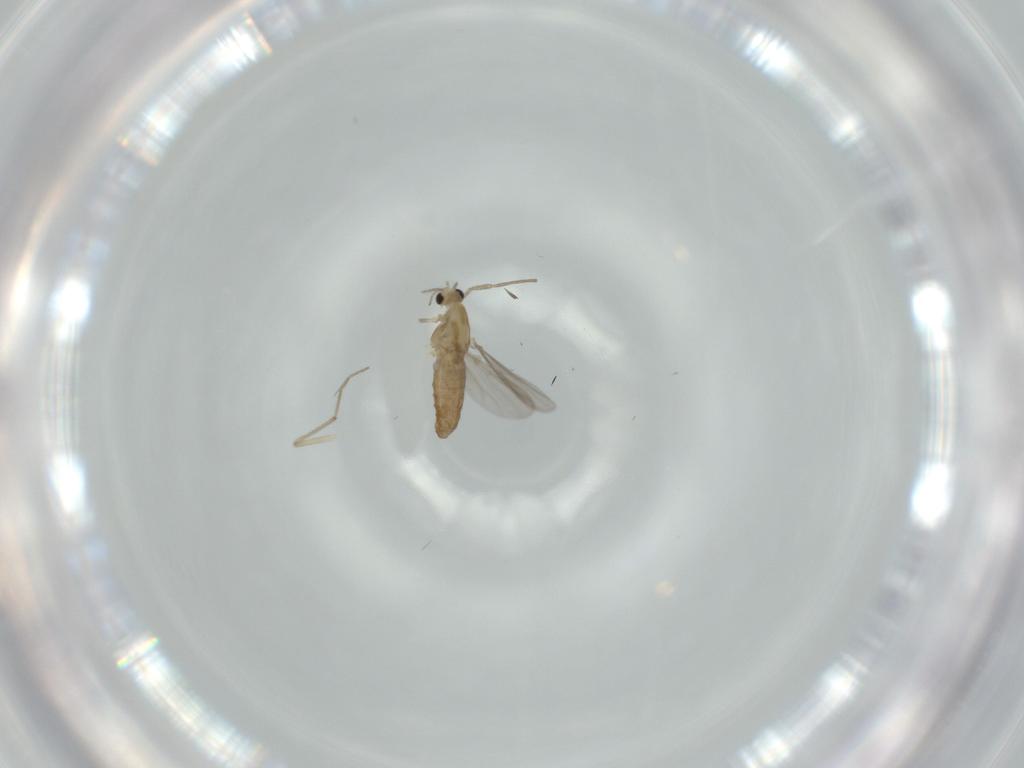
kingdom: Animalia
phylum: Arthropoda
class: Insecta
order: Diptera
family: Chironomidae
